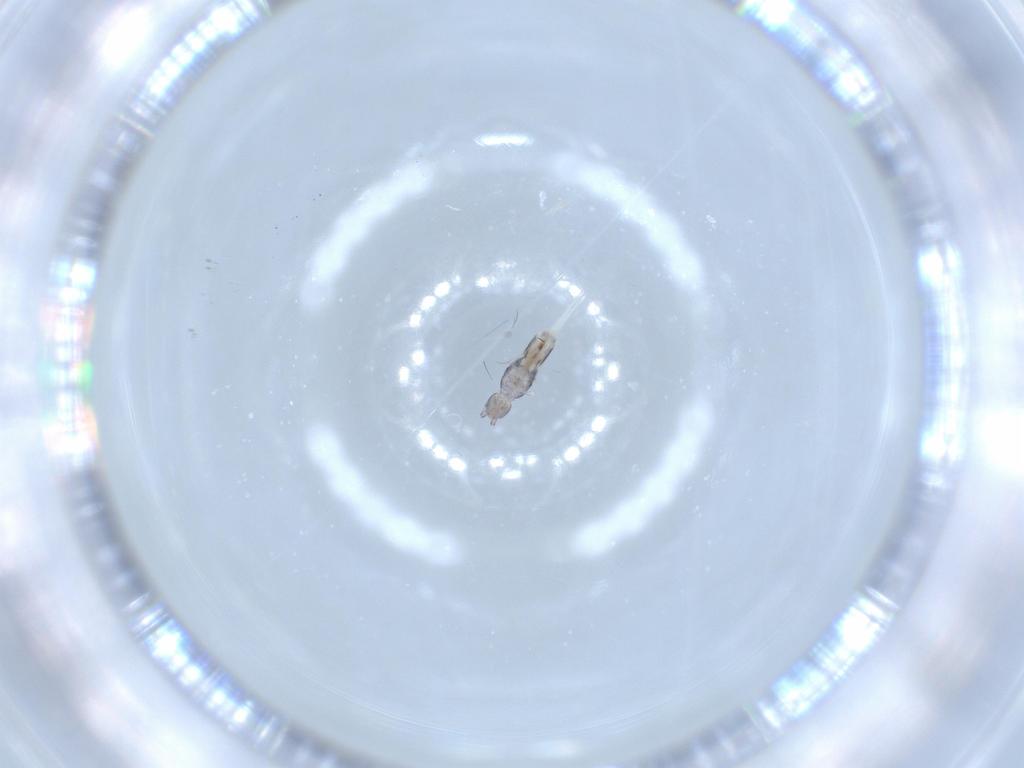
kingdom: Animalia
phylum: Arthropoda
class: Collembola
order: Entomobryomorpha
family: Entomobryidae
